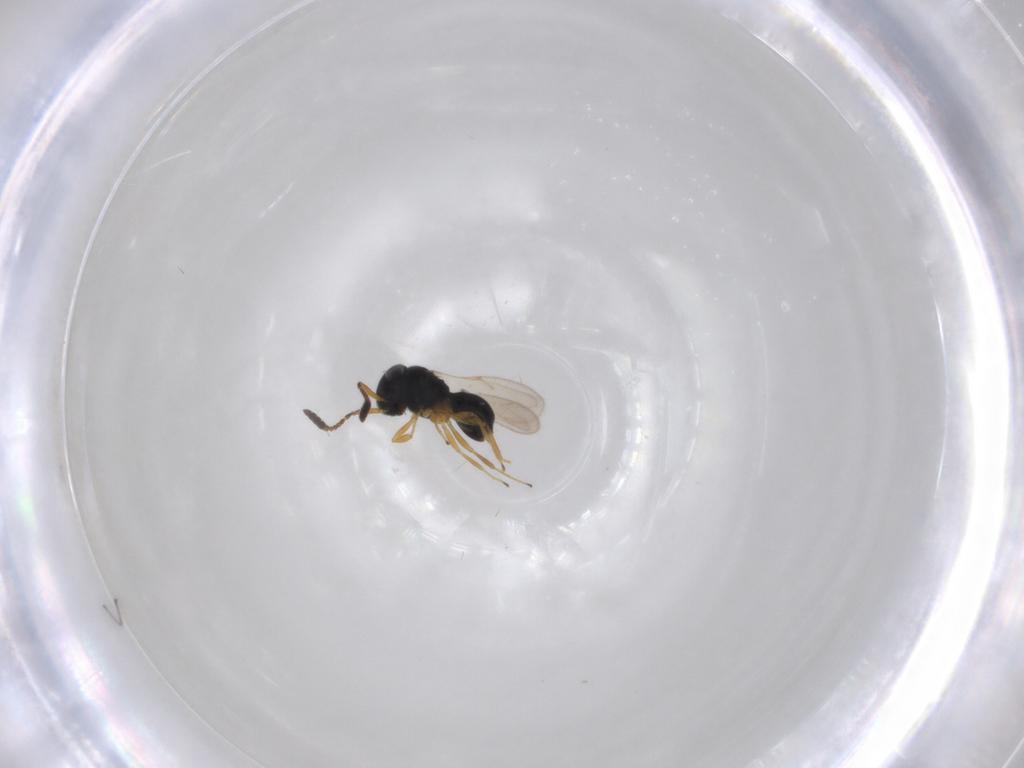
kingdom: Animalia
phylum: Arthropoda
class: Insecta
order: Hymenoptera
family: Scelionidae
